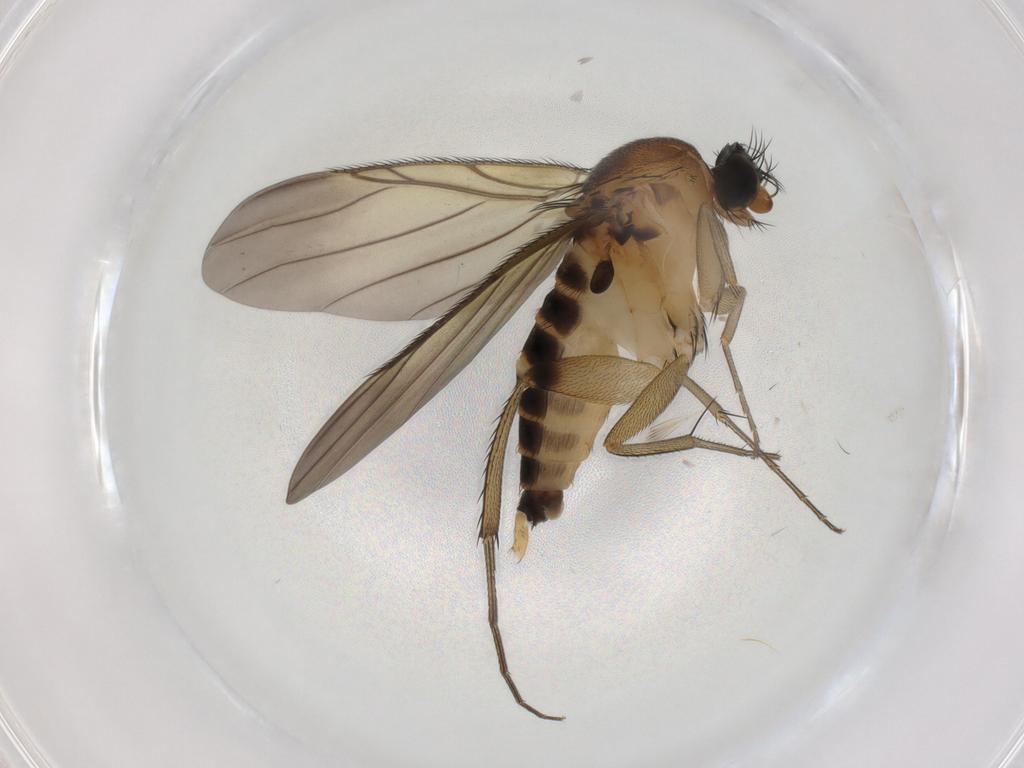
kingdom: Animalia
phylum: Arthropoda
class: Insecta
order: Diptera
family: Phoridae
